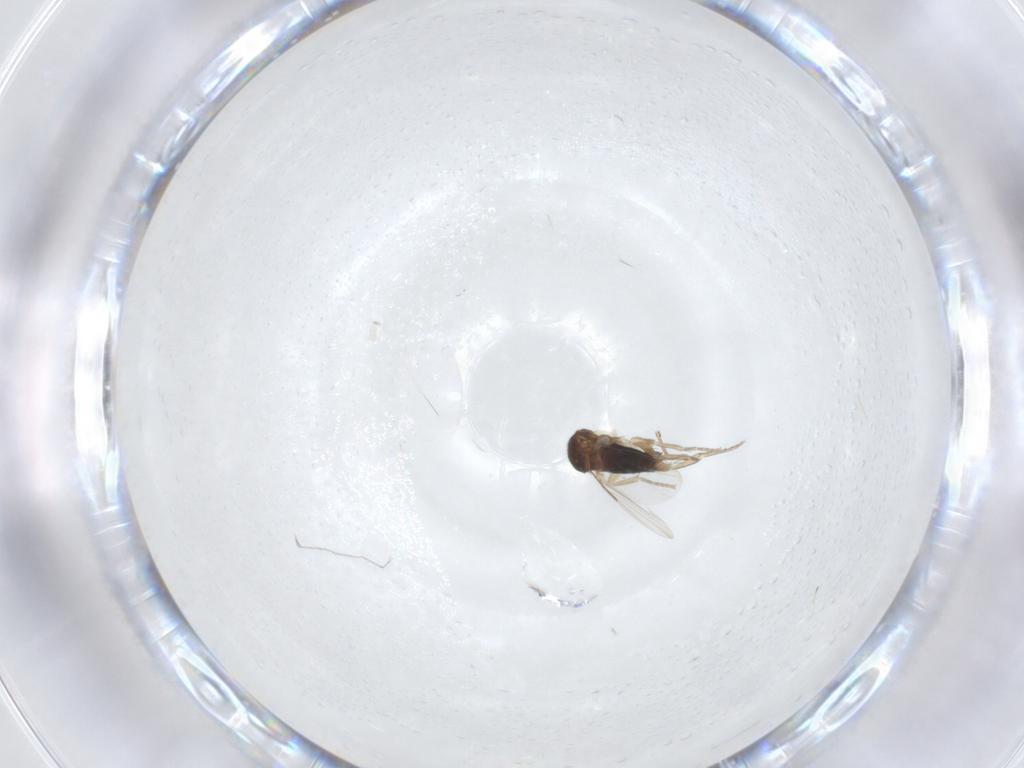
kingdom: Animalia
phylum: Arthropoda
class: Insecta
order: Diptera
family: Phoridae
